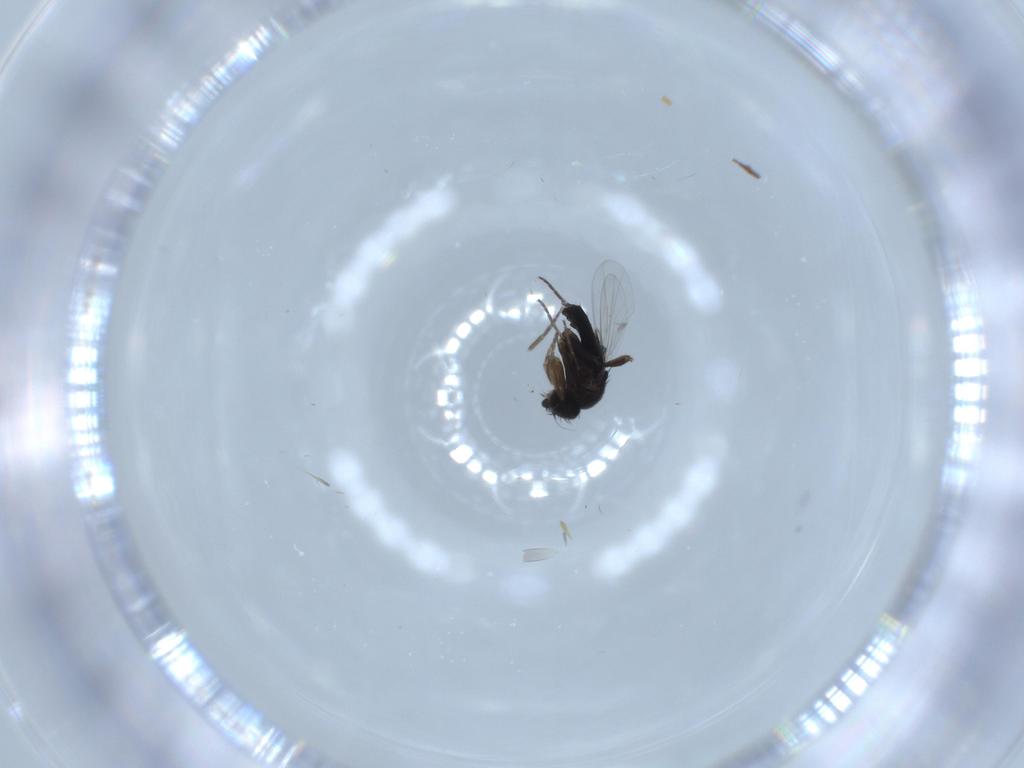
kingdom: Animalia
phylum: Arthropoda
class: Insecta
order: Diptera
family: Phoridae
